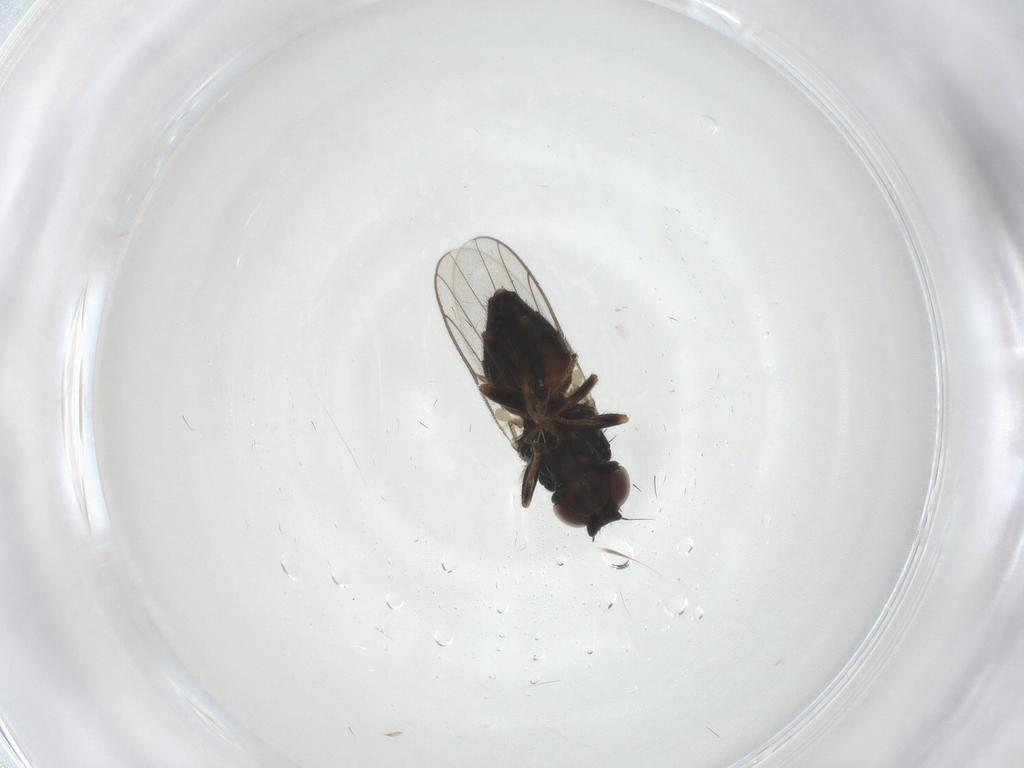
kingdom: Animalia
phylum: Arthropoda
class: Insecta
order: Diptera
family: Chloropidae
